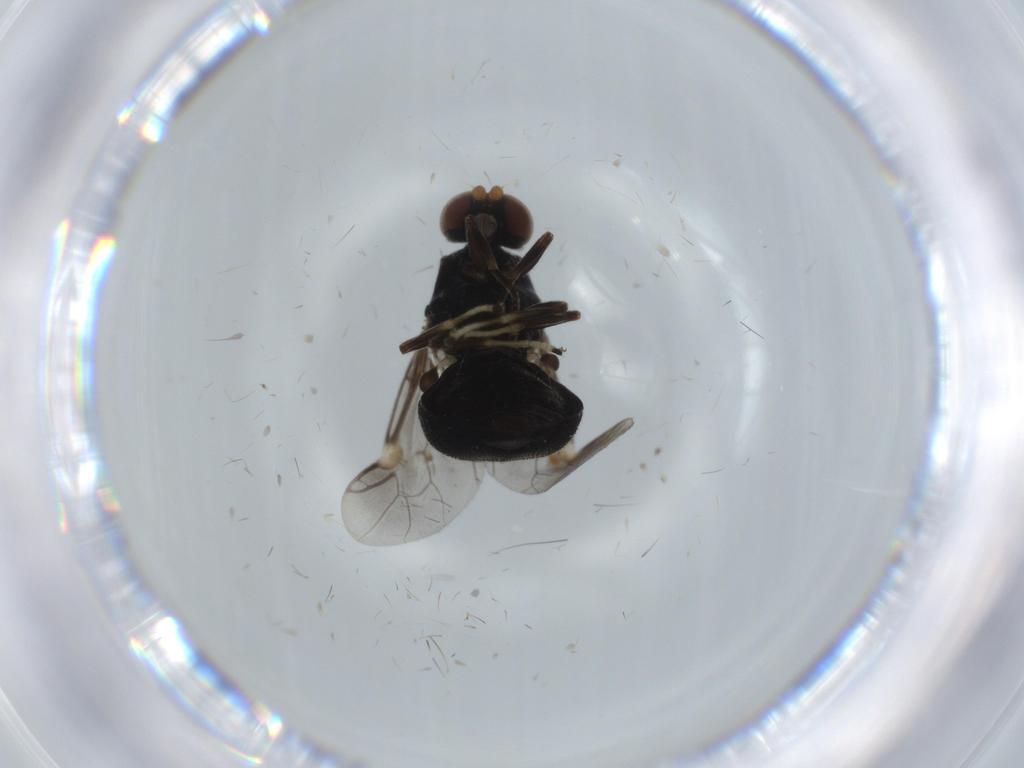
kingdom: Animalia
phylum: Arthropoda
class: Insecta
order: Diptera
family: Stratiomyidae
